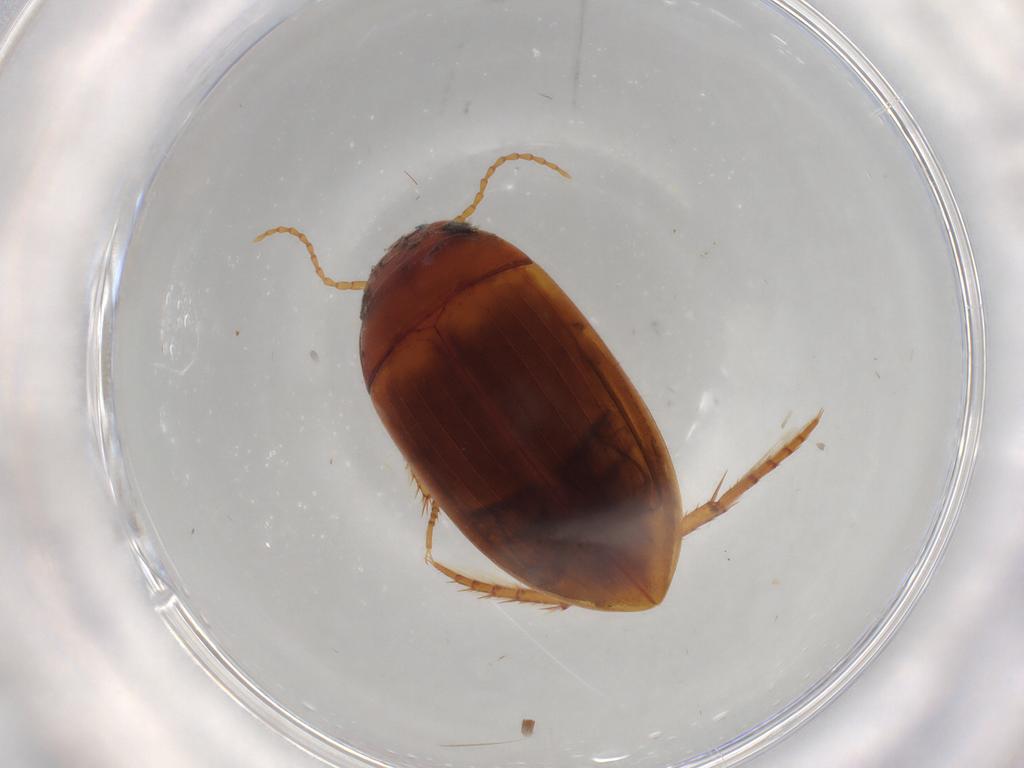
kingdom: Animalia
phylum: Arthropoda
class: Insecta
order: Coleoptera
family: Dytiscidae
